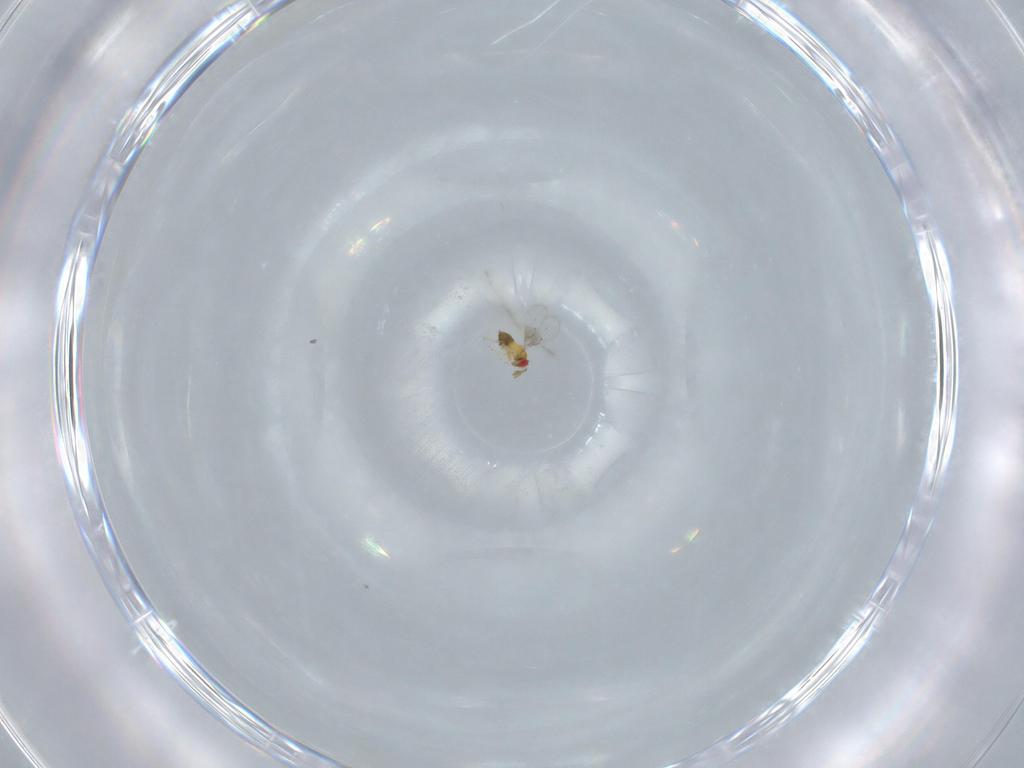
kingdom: Animalia
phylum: Arthropoda
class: Insecta
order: Hymenoptera
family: Trichogrammatidae
